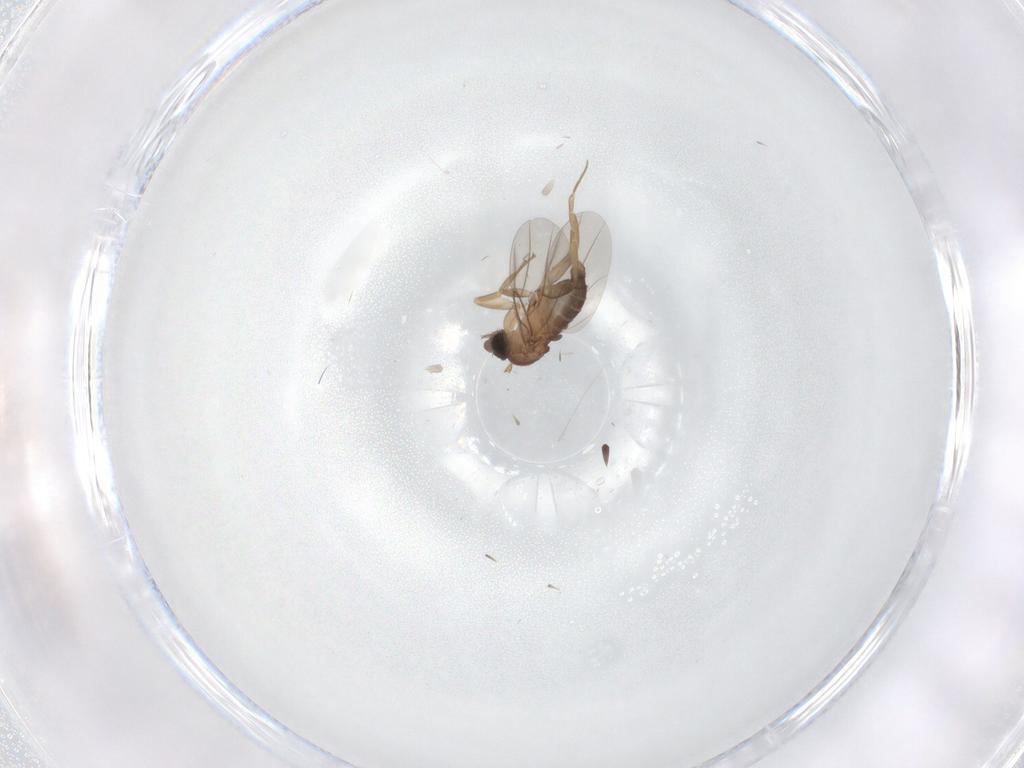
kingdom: Animalia
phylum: Arthropoda
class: Insecta
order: Diptera
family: Phoridae
